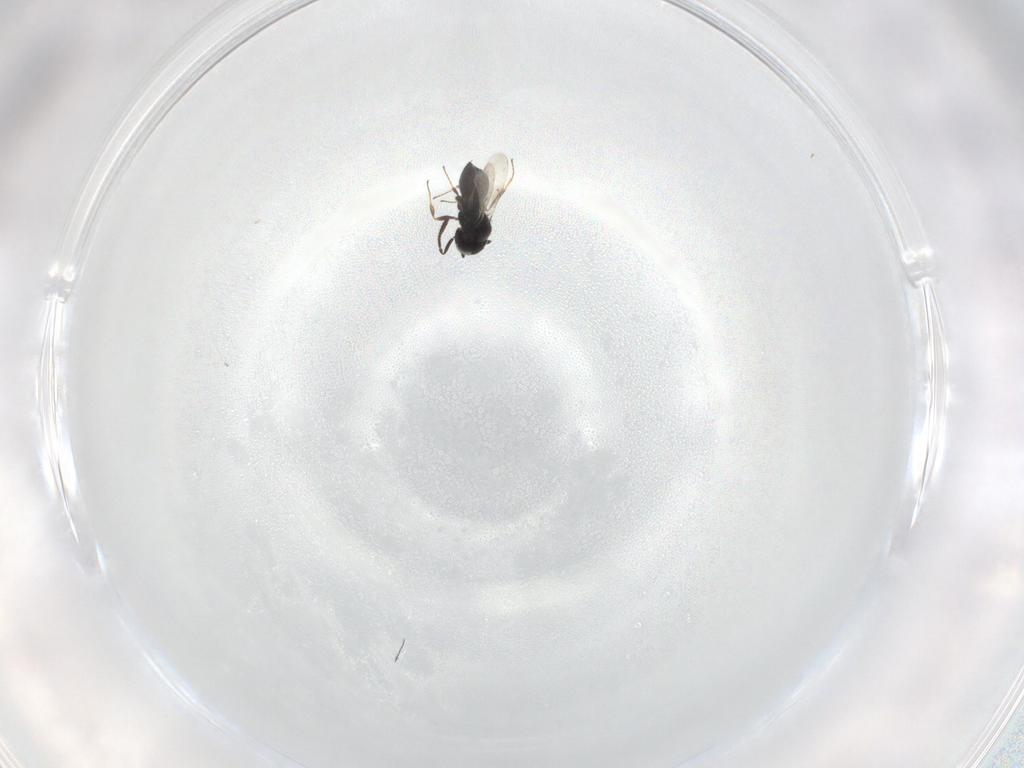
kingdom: Animalia
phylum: Arthropoda
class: Insecta
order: Hymenoptera
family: Scelionidae
